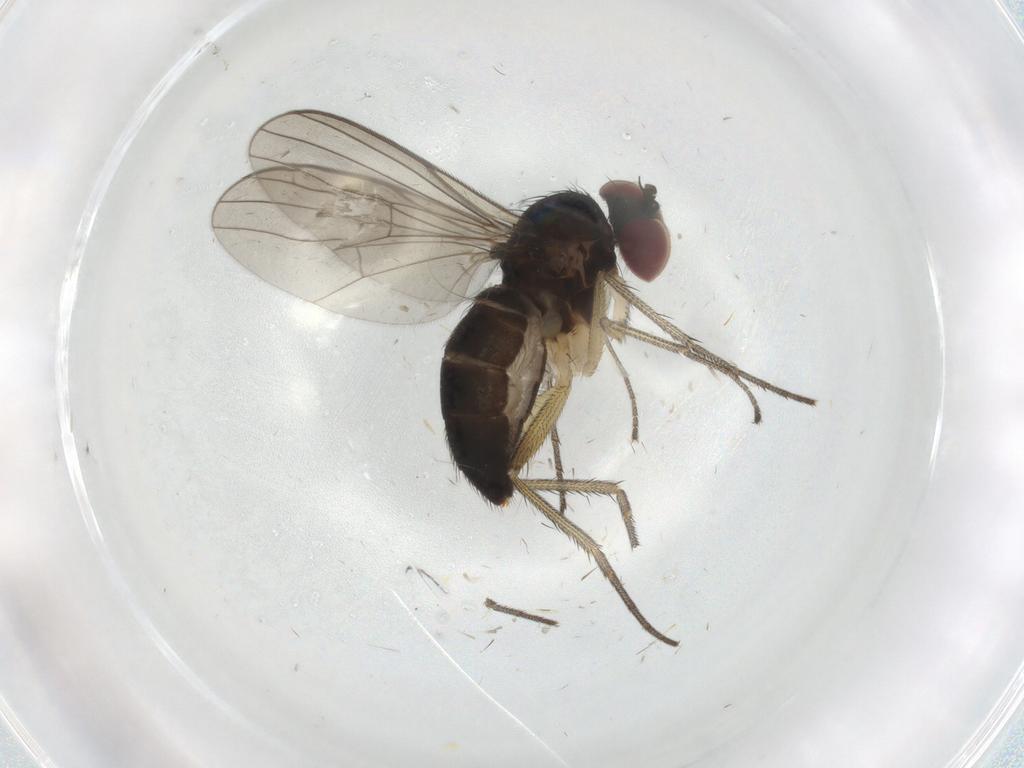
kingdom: Animalia
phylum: Arthropoda
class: Insecta
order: Diptera
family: Dolichopodidae
